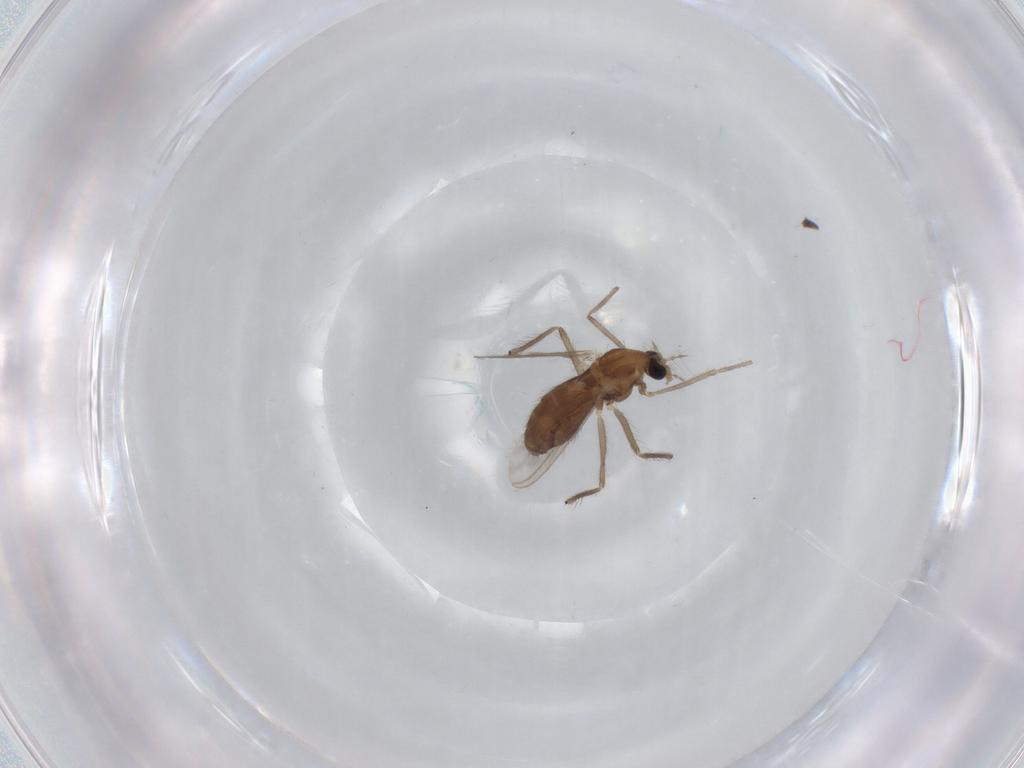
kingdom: Animalia
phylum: Arthropoda
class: Insecta
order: Diptera
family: Chironomidae
